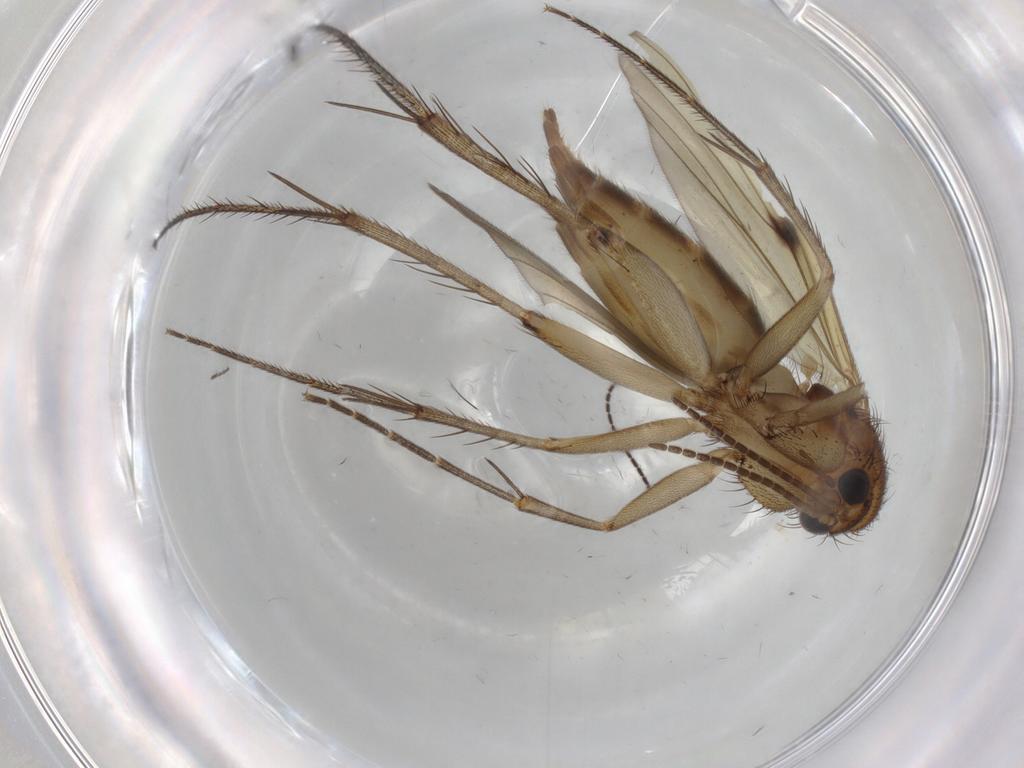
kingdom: Animalia
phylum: Arthropoda
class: Insecta
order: Diptera
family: Mycetophilidae
